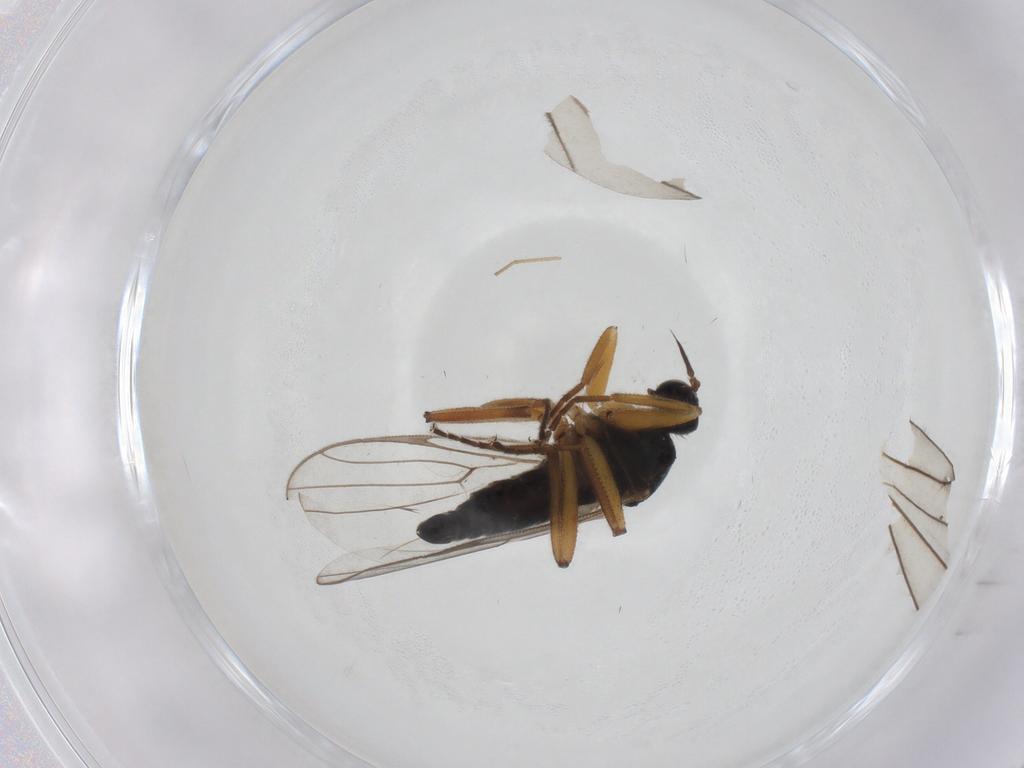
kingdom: Animalia
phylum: Arthropoda
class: Insecta
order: Diptera
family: Hybotidae
